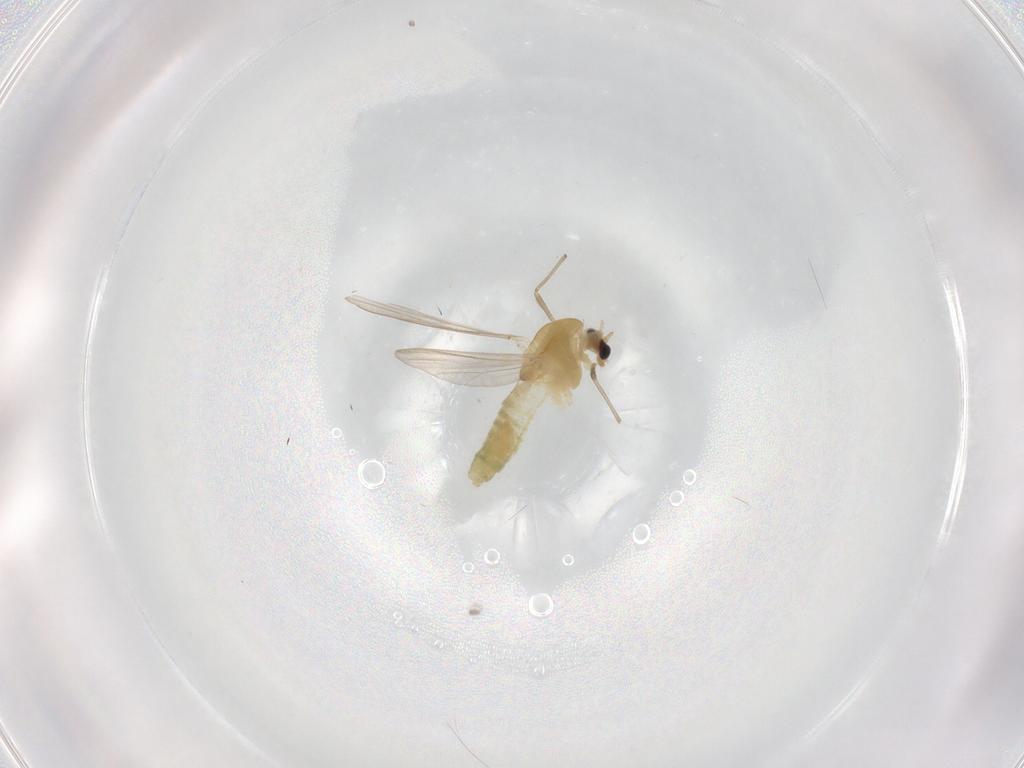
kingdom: Animalia
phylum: Arthropoda
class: Insecta
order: Diptera
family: Chironomidae
